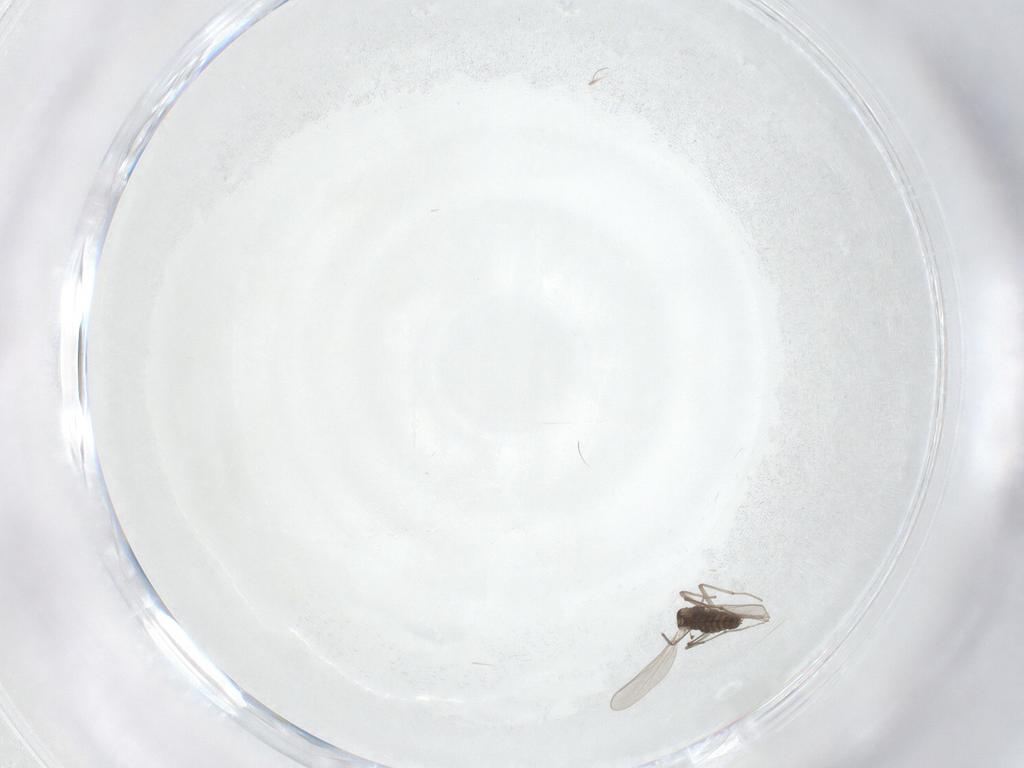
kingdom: Animalia
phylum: Arthropoda
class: Insecta
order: Diptera
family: Chironomidae
